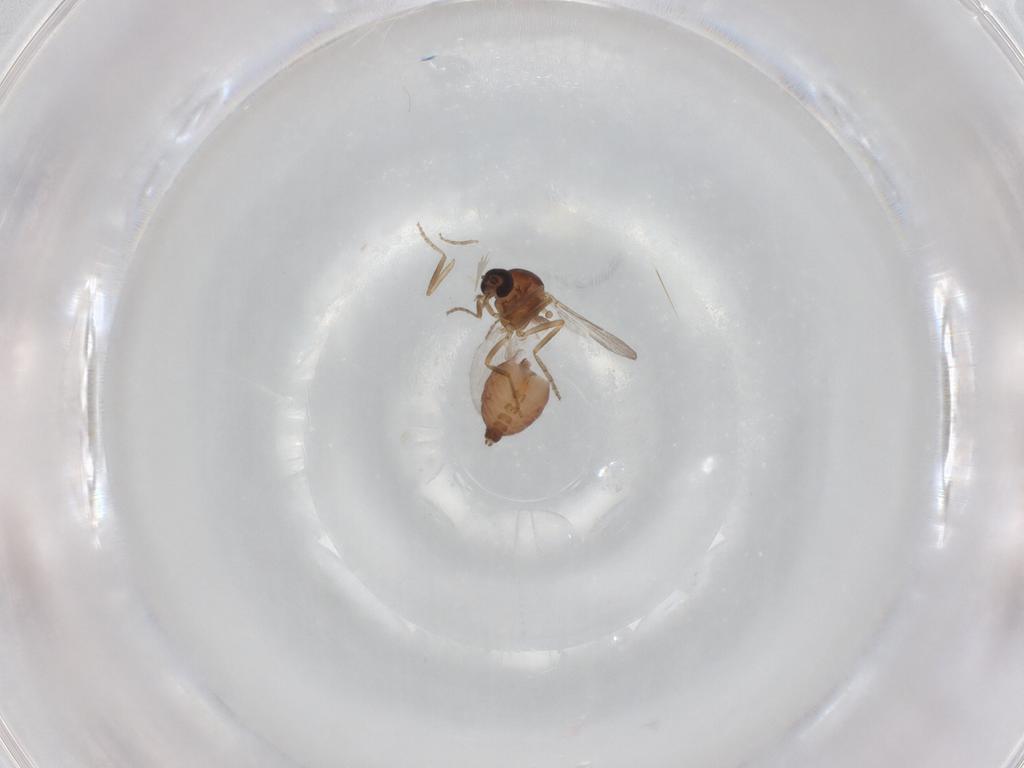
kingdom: Animalia
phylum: Arthropoda
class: Insecta
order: Diptera
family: Ceratopogonidae
